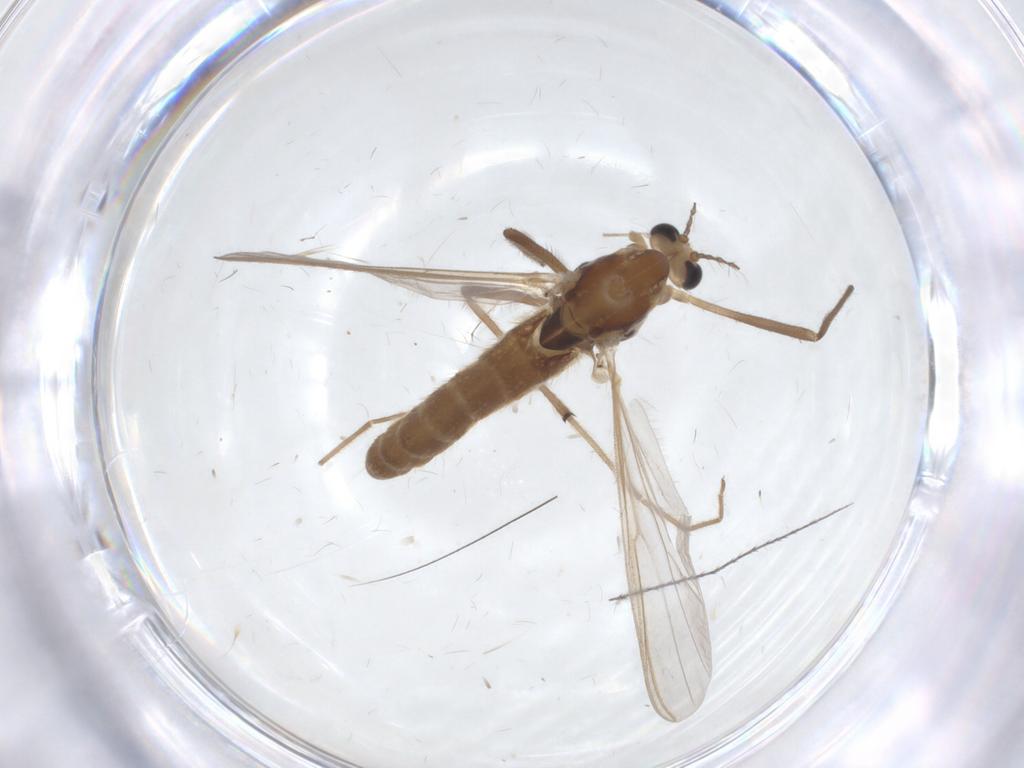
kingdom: Animalia
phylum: Arthropoda
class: Insecta
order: Diptera
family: Chironomidae
